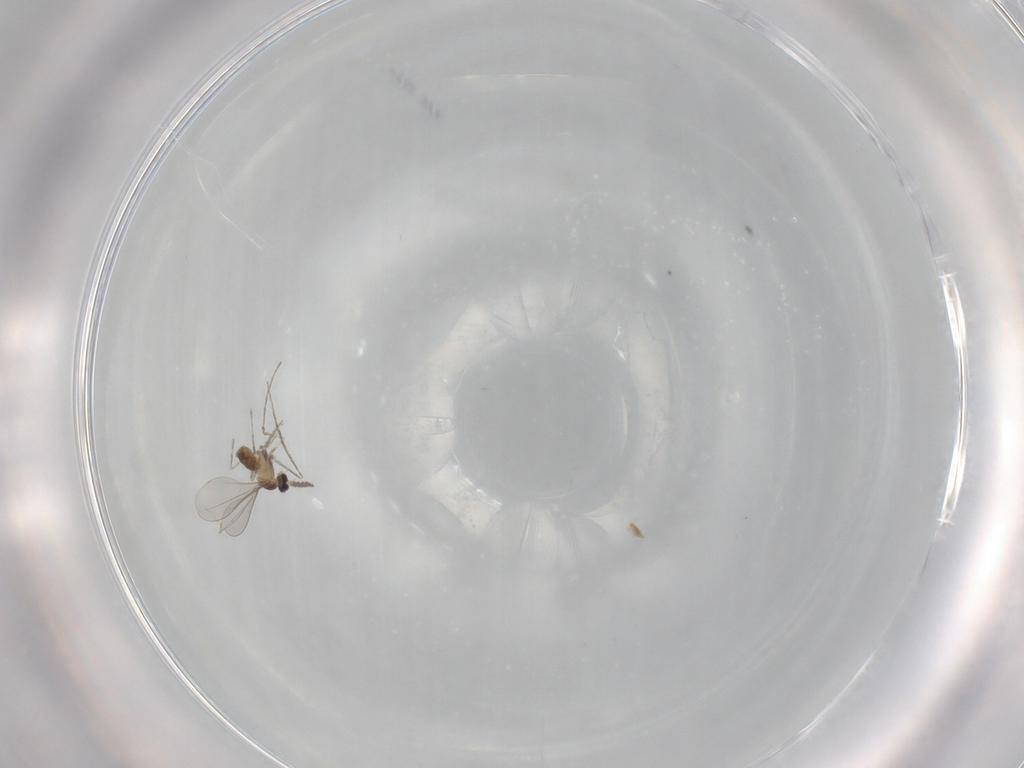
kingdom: Animalia
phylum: Arthropoda
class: Insecta
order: Diptera
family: Cecidomyiidae
